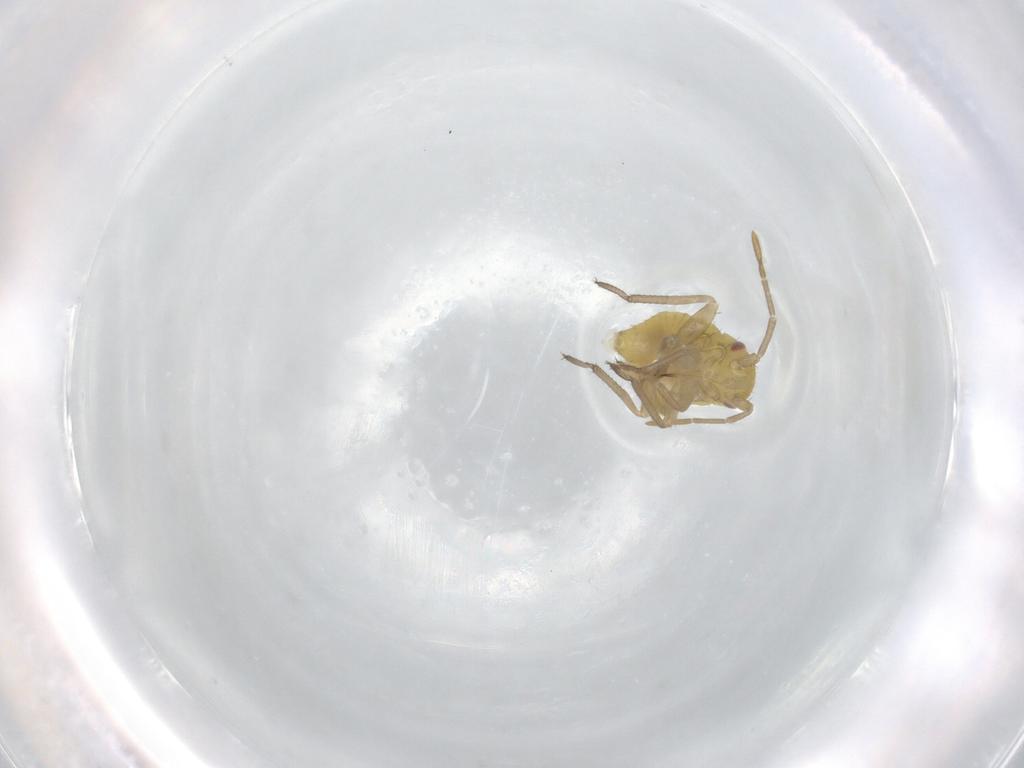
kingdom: Animalia
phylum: Arthropoda
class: Insecta
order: Hemiptera
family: Miridae
